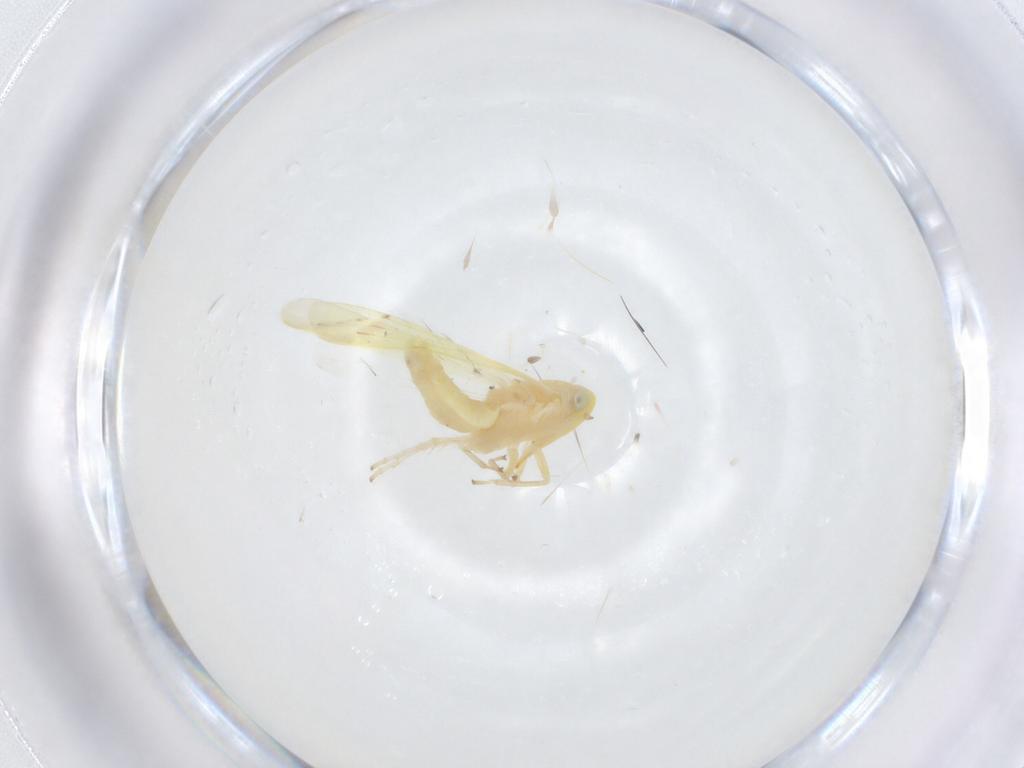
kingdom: Animalia
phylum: Arthropoda
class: Insecta
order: Hemiptera
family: Cicadellidae
